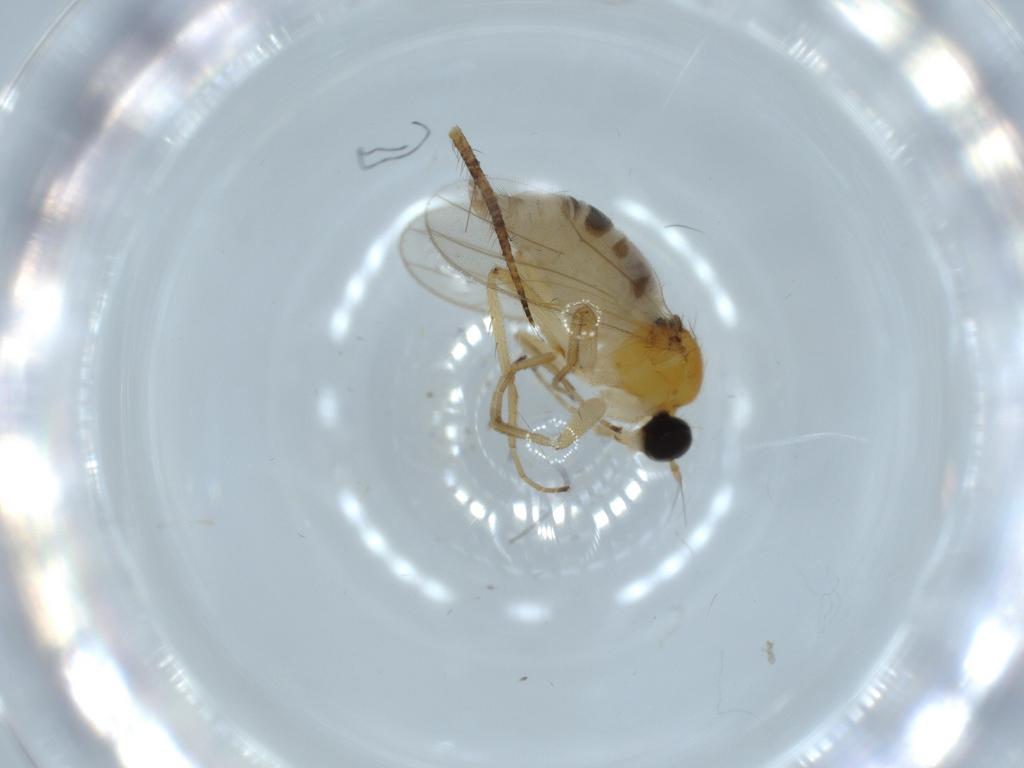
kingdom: Animalia
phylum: Arthropoda
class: Insecta
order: Diptera
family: Hybotidae
